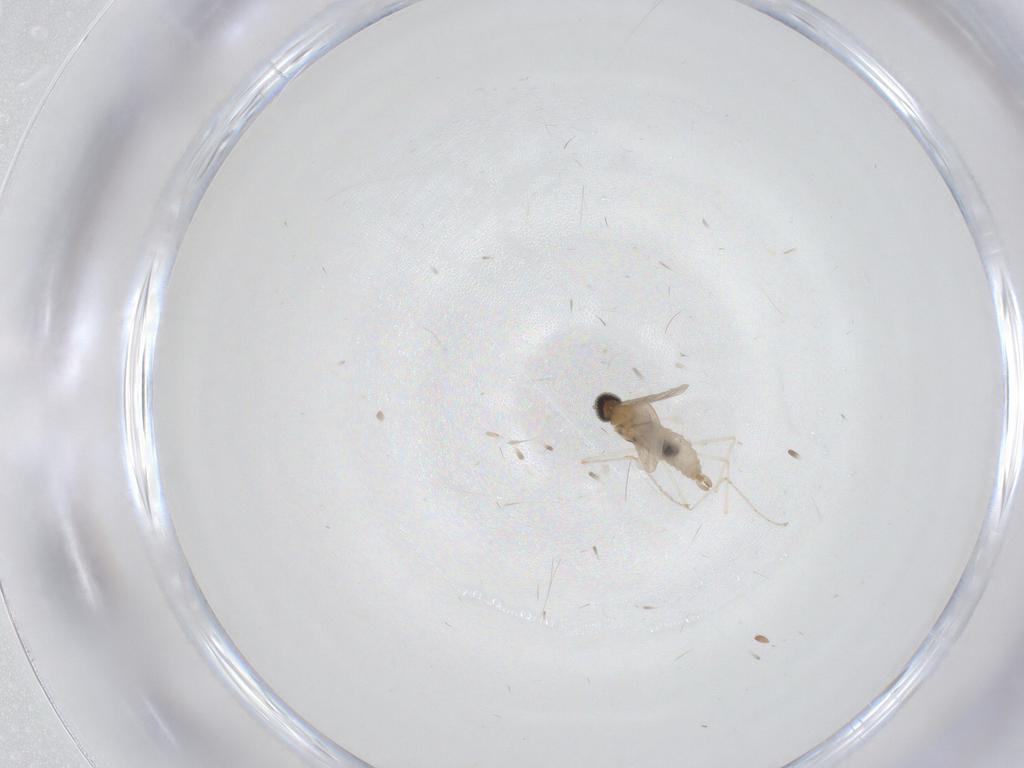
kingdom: Animalia
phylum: Arthropoda
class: Insecta
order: Diptera
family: Cecidomyiidae
